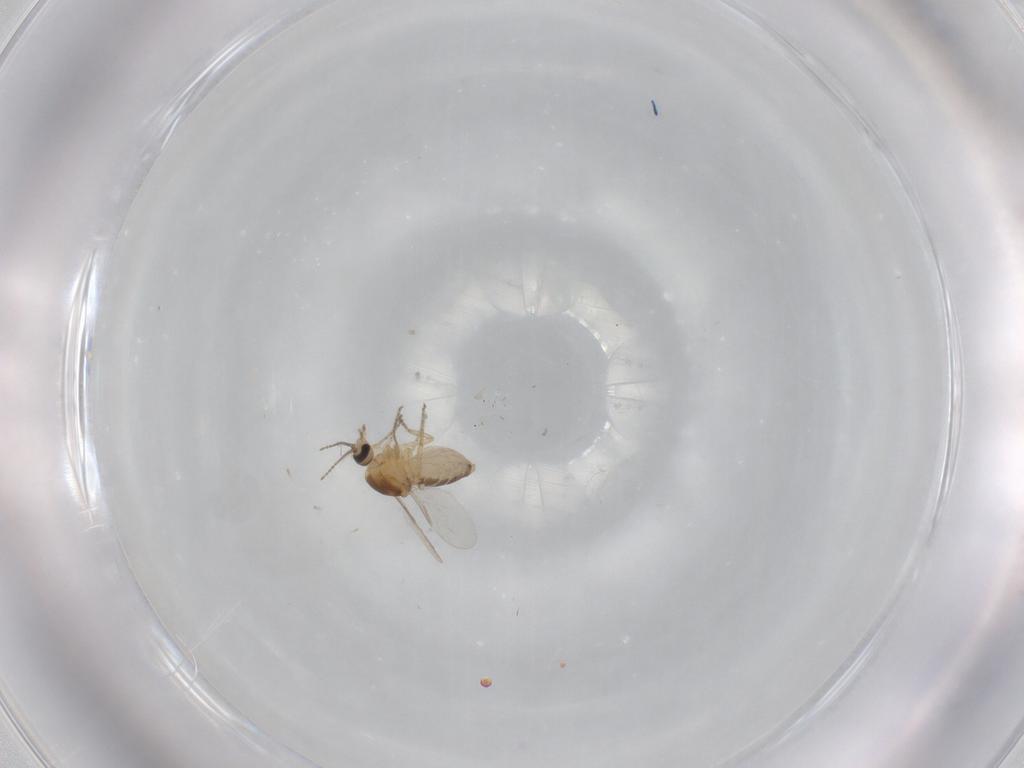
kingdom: Animalia
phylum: Arthropoda
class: Insecta
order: Diptera
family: Ceratopogonidae
